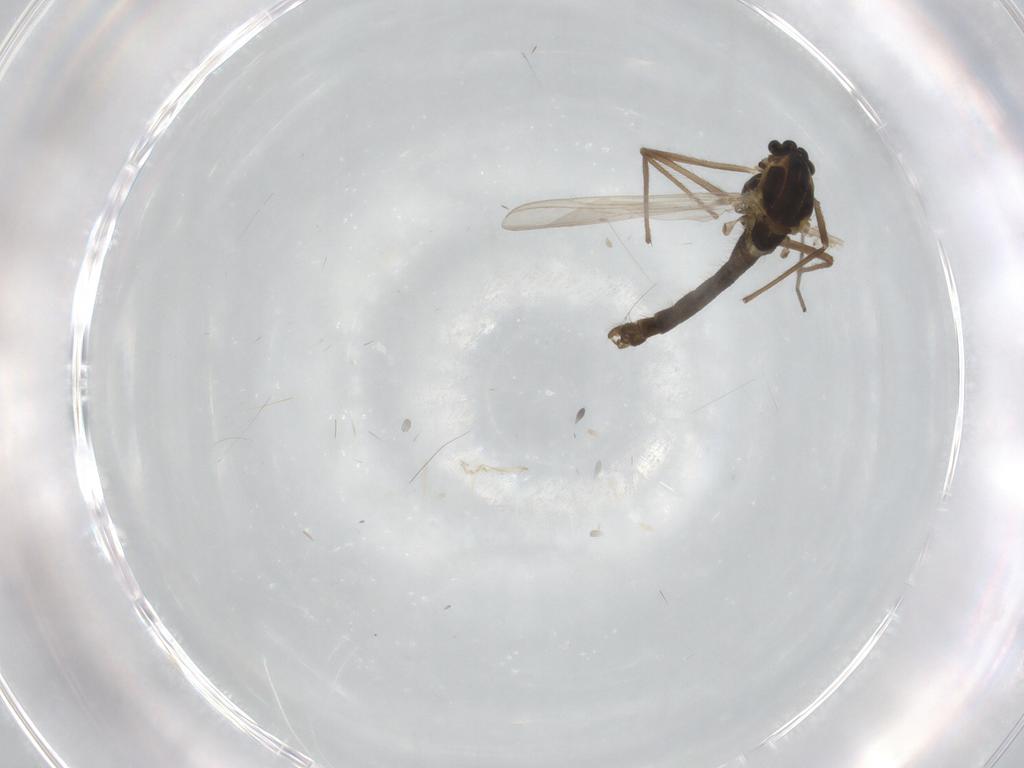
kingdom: Animalia
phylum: Arthropoda
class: Insecta
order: Diptera
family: Chironomidae
